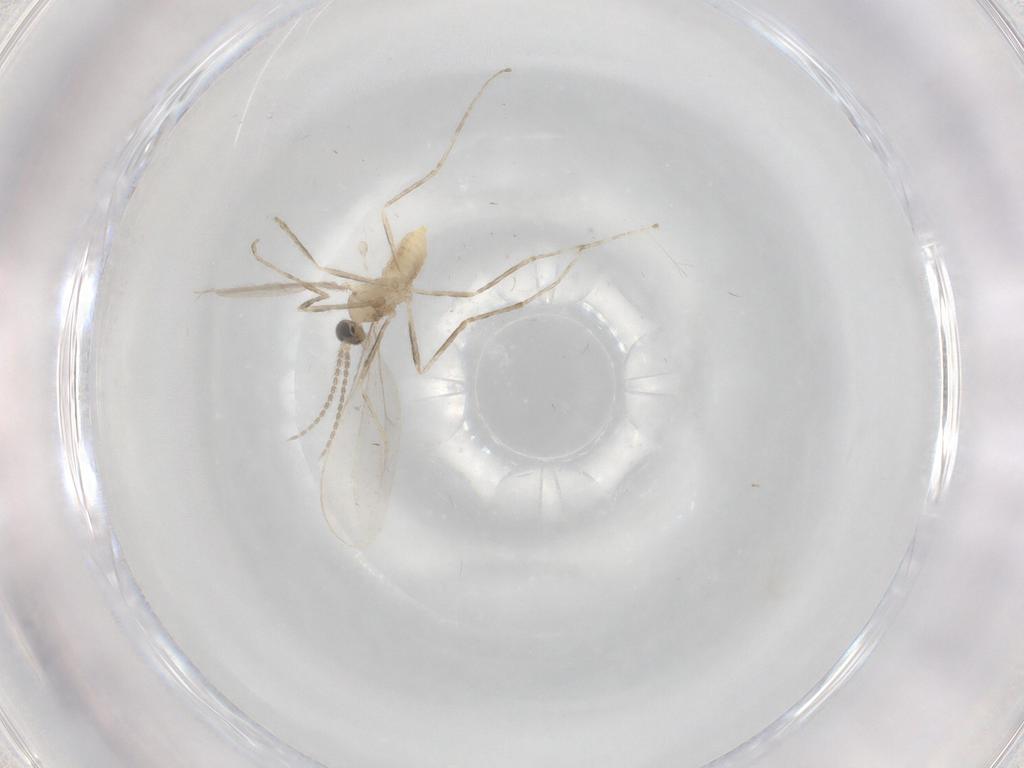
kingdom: Animalia
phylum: Arthropoda
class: Insecta
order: Diptera
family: Cecidomyiidae
